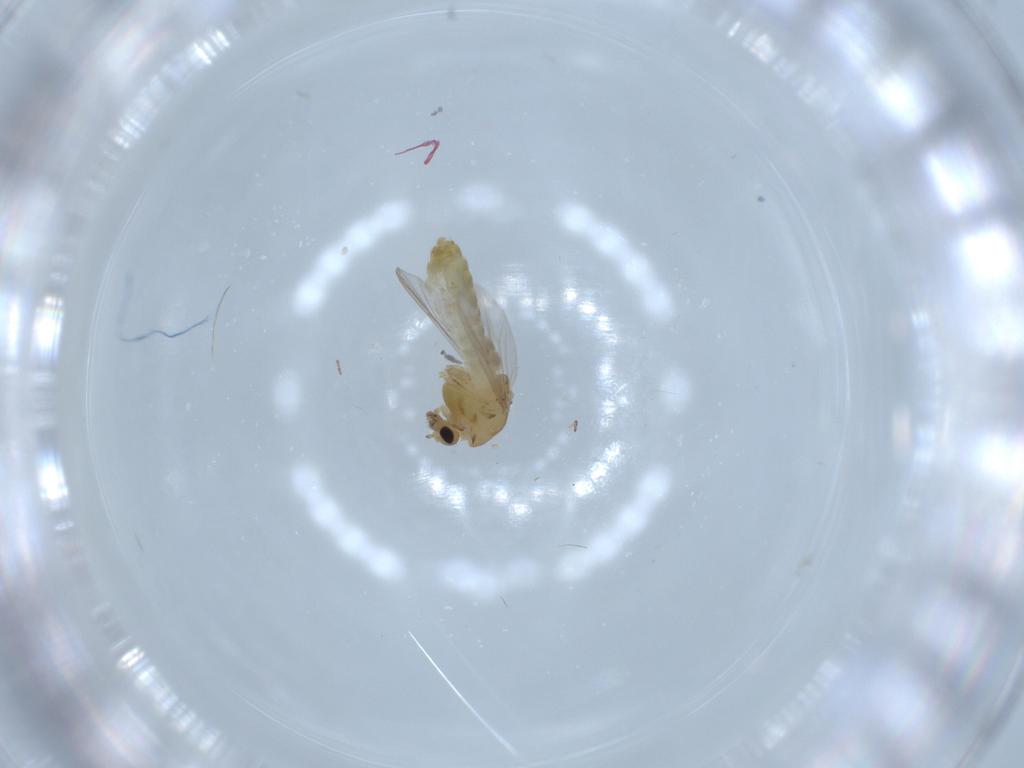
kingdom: Animalia
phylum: Arthropoda
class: Insecta
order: Diptera
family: Chironomidae
